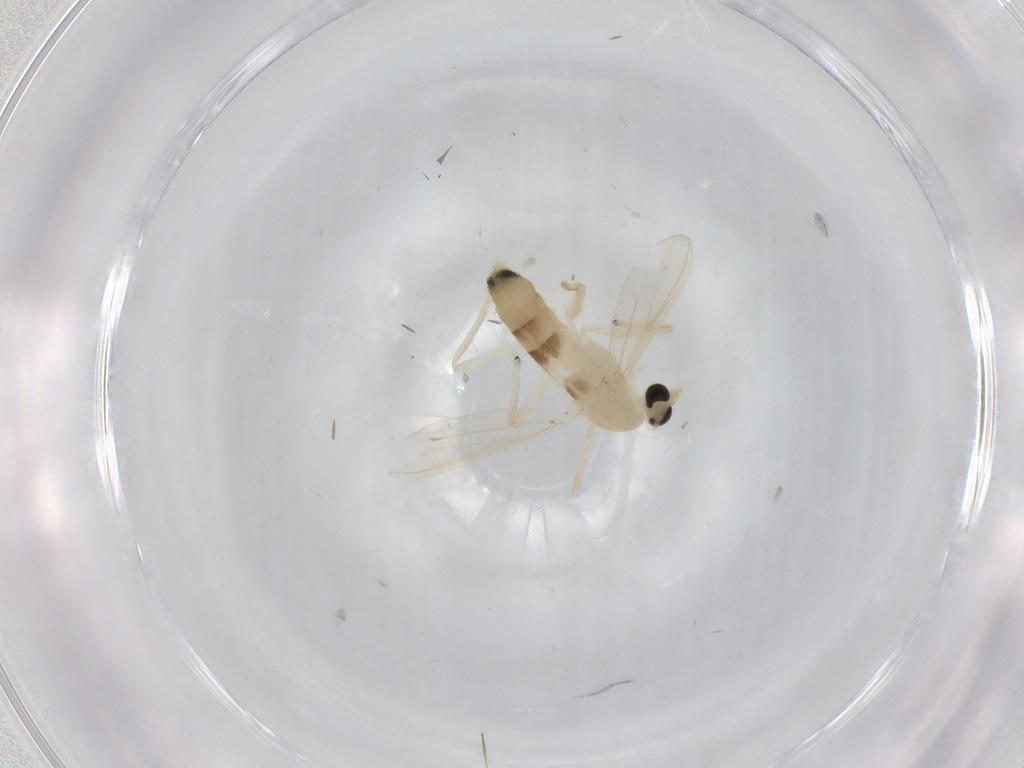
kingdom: Animalia
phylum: Arthropoda
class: Insecta
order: Diptera
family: Chironomidae
